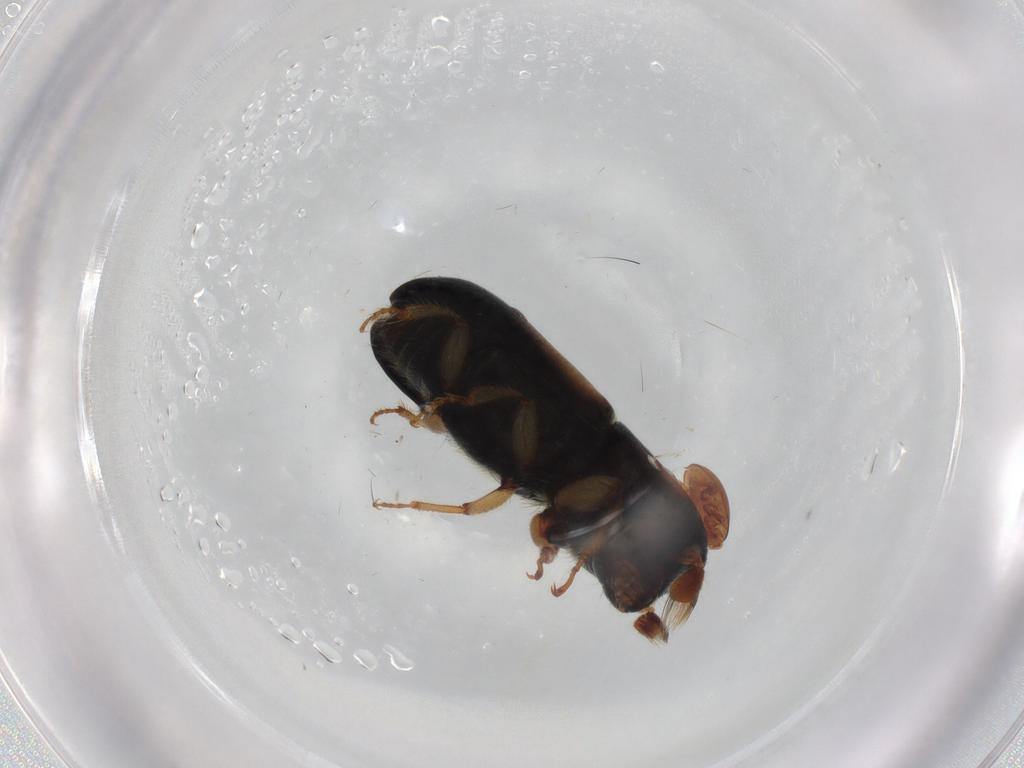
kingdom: Animalia
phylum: Arthropoda
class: Insecta
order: Coleoptera
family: Curculionidae
